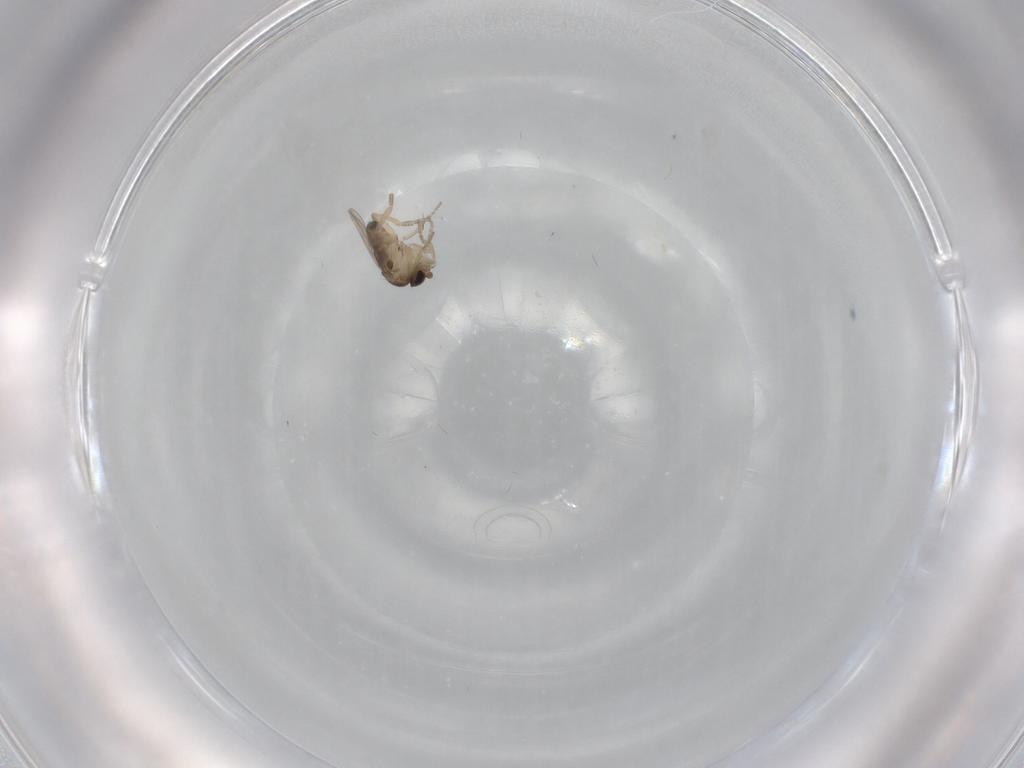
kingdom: Animalia
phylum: Arthropoda
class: Insecta
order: Diptera
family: Phoridae
